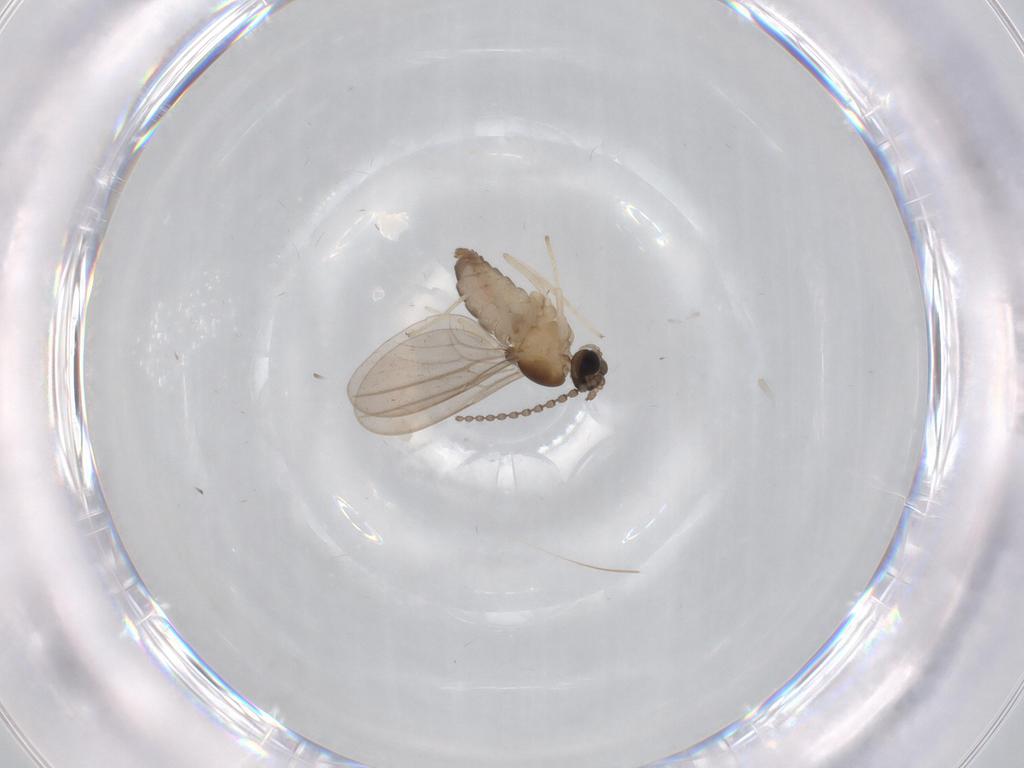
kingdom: Animalia
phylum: Arthropoda
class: Insecta
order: Diptera
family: Cecidomyiidae
